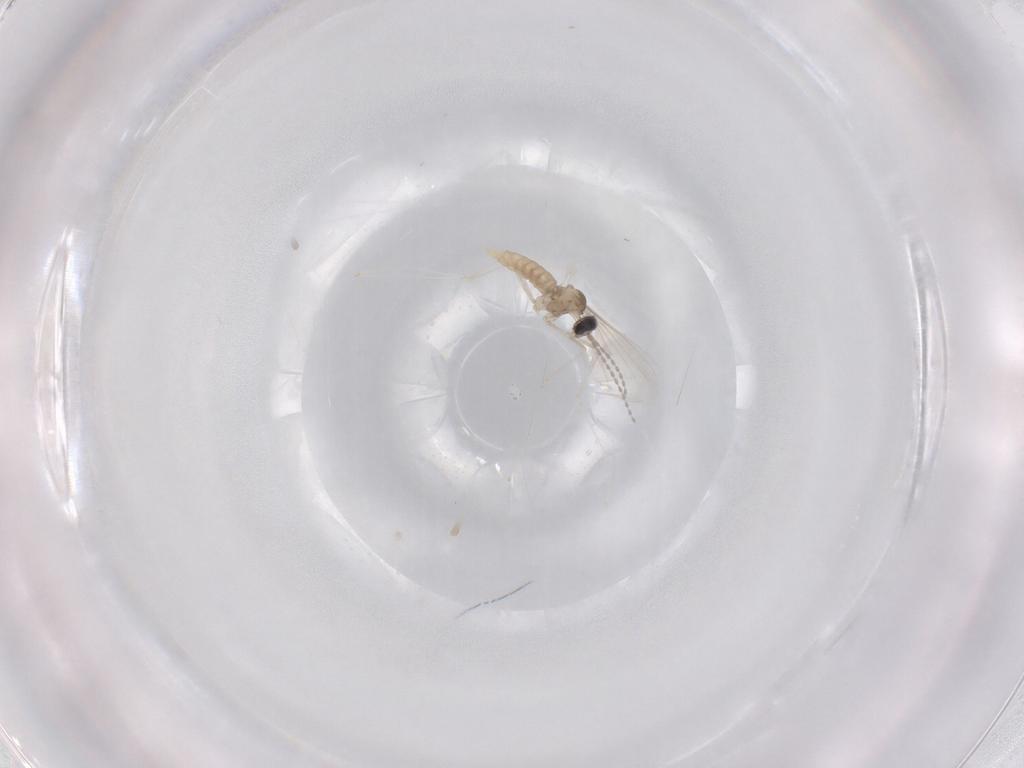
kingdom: Animalia
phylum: Arthropoda
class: Insecta
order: Diptera
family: Cecidomyiidae
